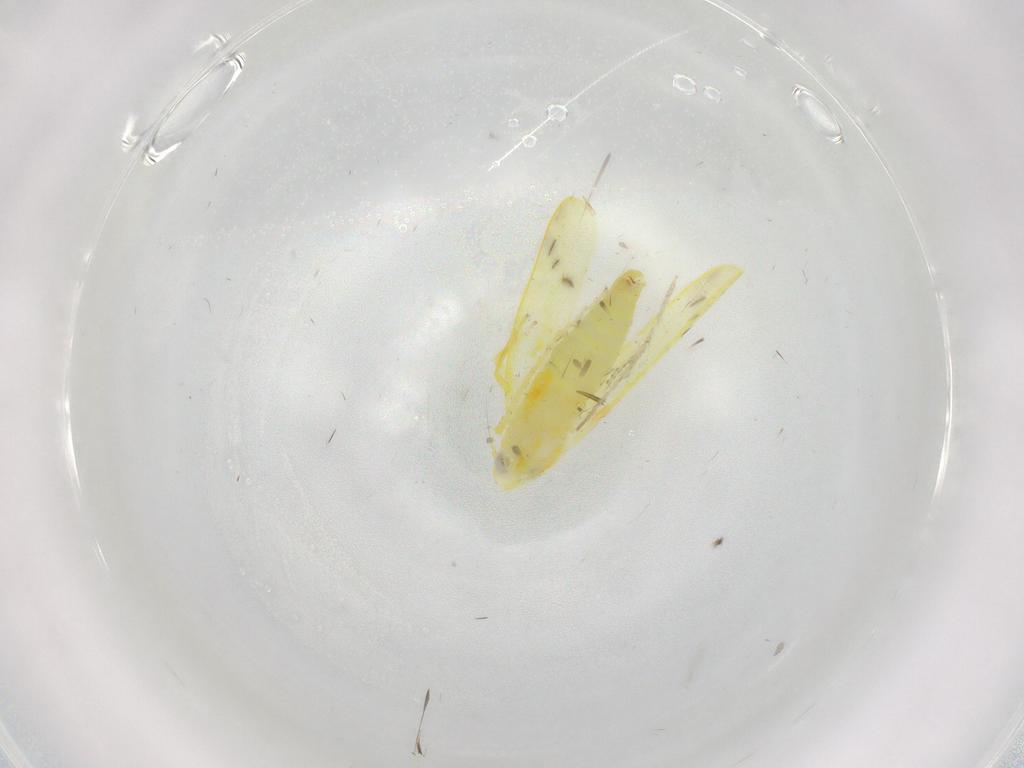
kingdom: Animalia
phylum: Arthropoda
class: Insecta
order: Hemiptera
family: Cicadellidae
